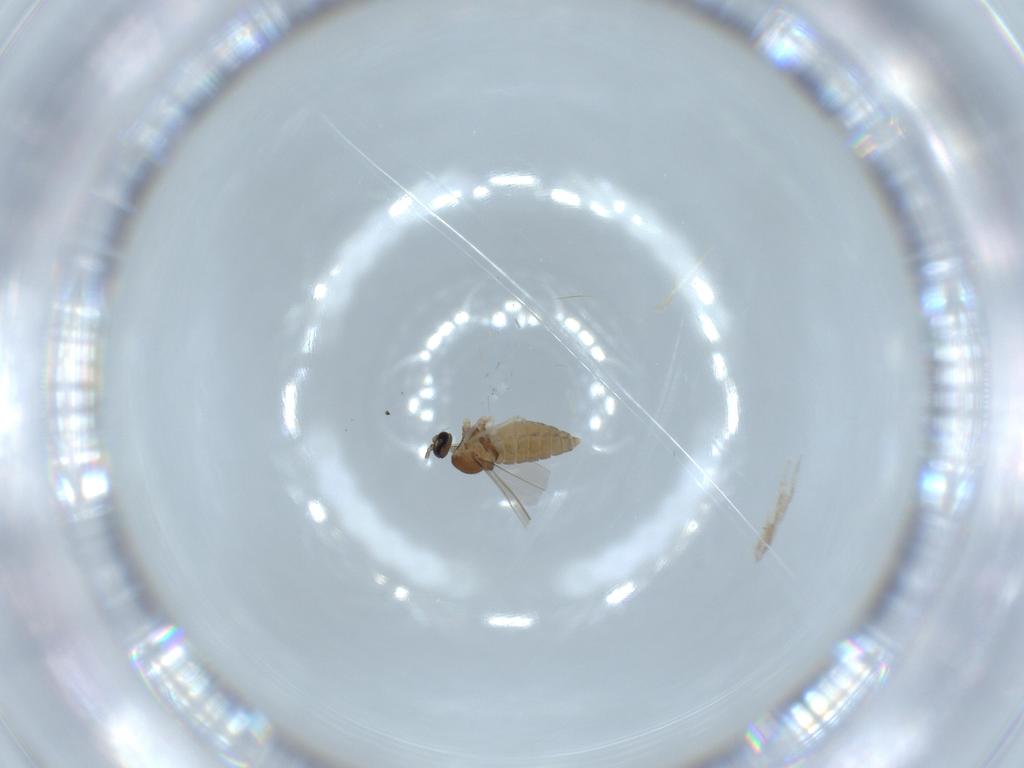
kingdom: Animalia
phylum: Arthropoda
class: Insecta
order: Diptera
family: Cecidomyiidae
